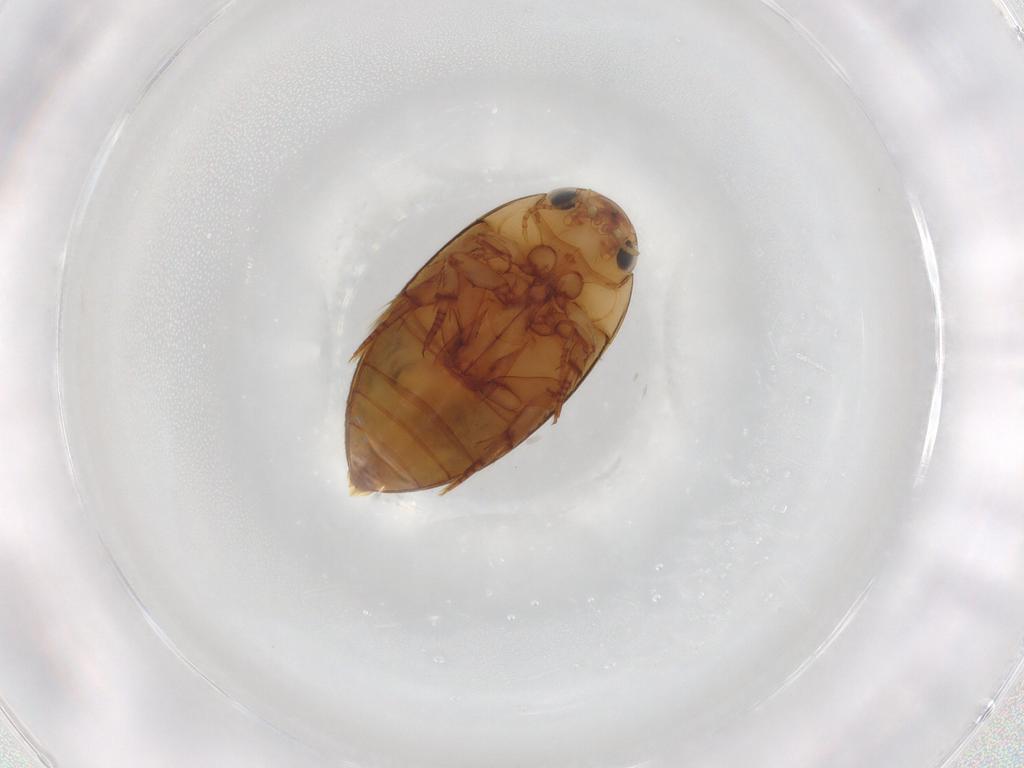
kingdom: Animalia
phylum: Arthropoda
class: Insecta
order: Coleoptera
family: Noteridae
